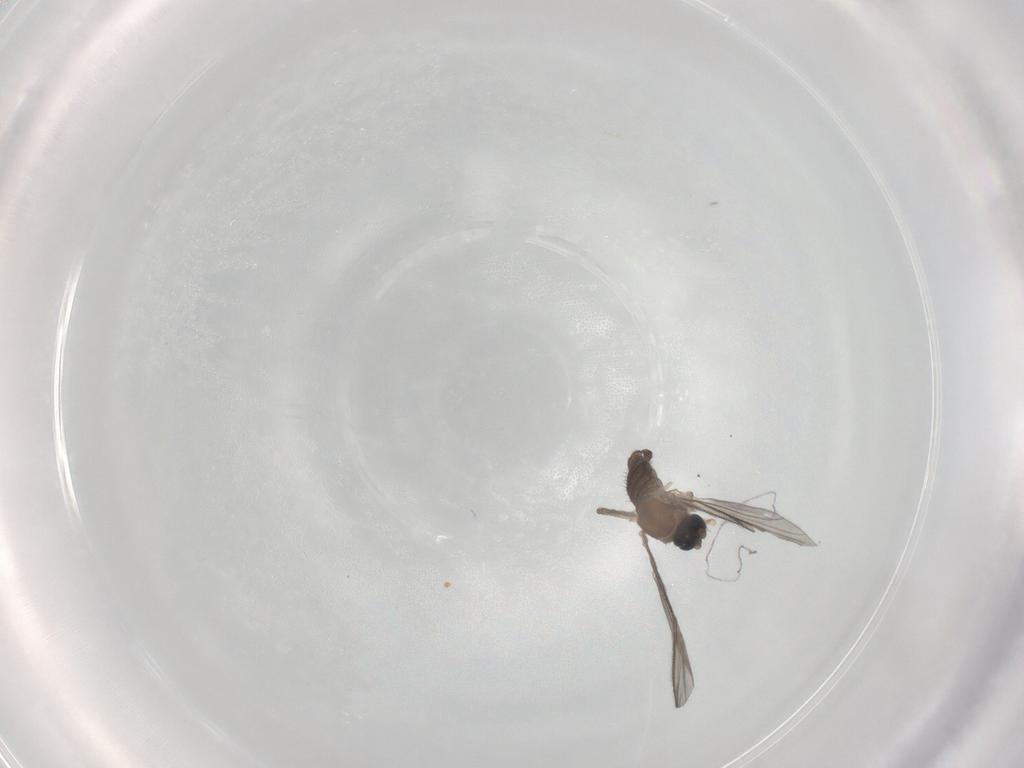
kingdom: Animalia
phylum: Arthropoda
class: Insecta
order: Diptera
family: Sciaridae
